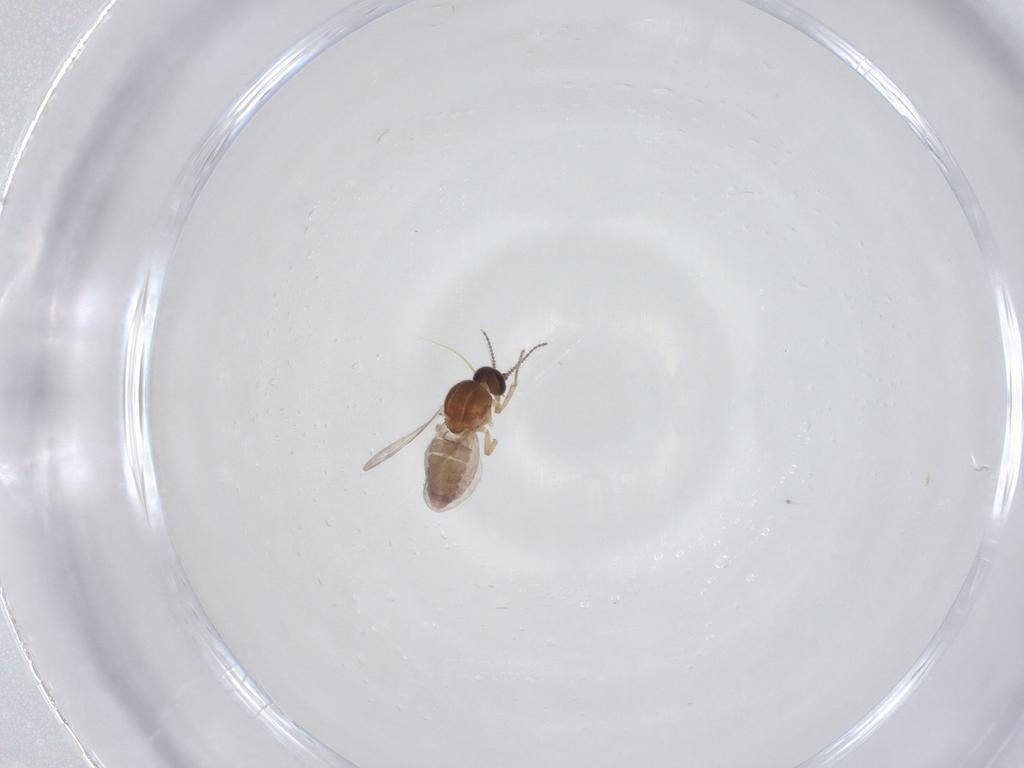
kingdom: Animalia
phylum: Arthropoda
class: Insecta
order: Diptera
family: Ceratopogonidae
